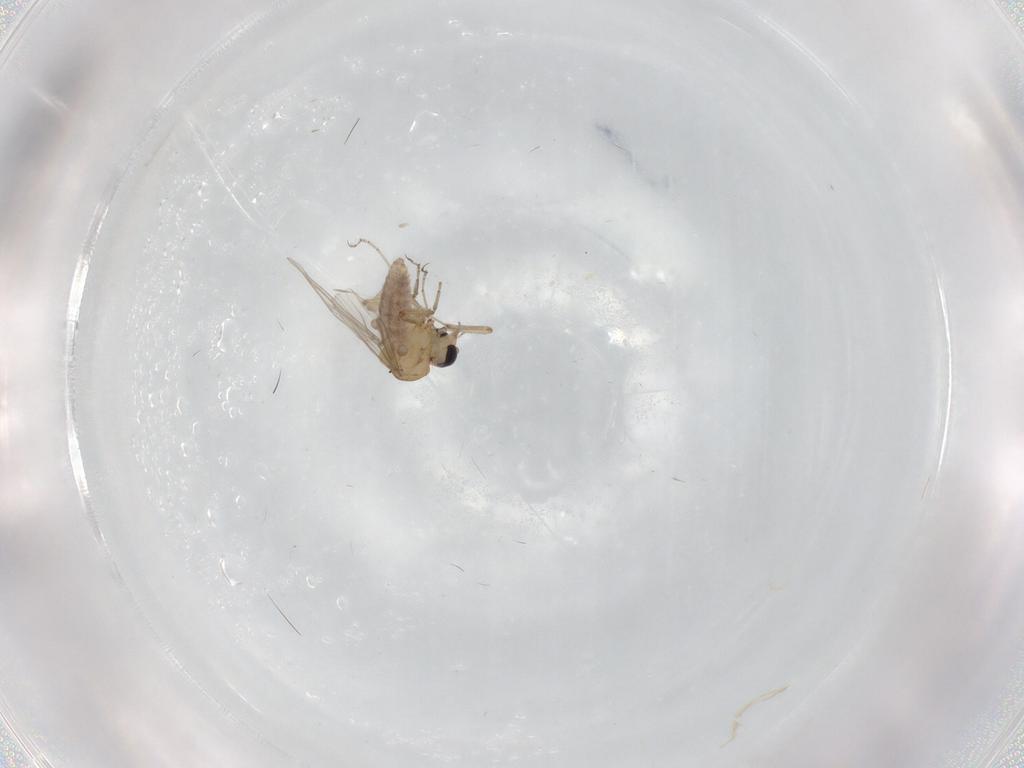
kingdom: Animalia
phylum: Arthropoda
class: Insecta
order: Diptera
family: Ceratopogonidae
